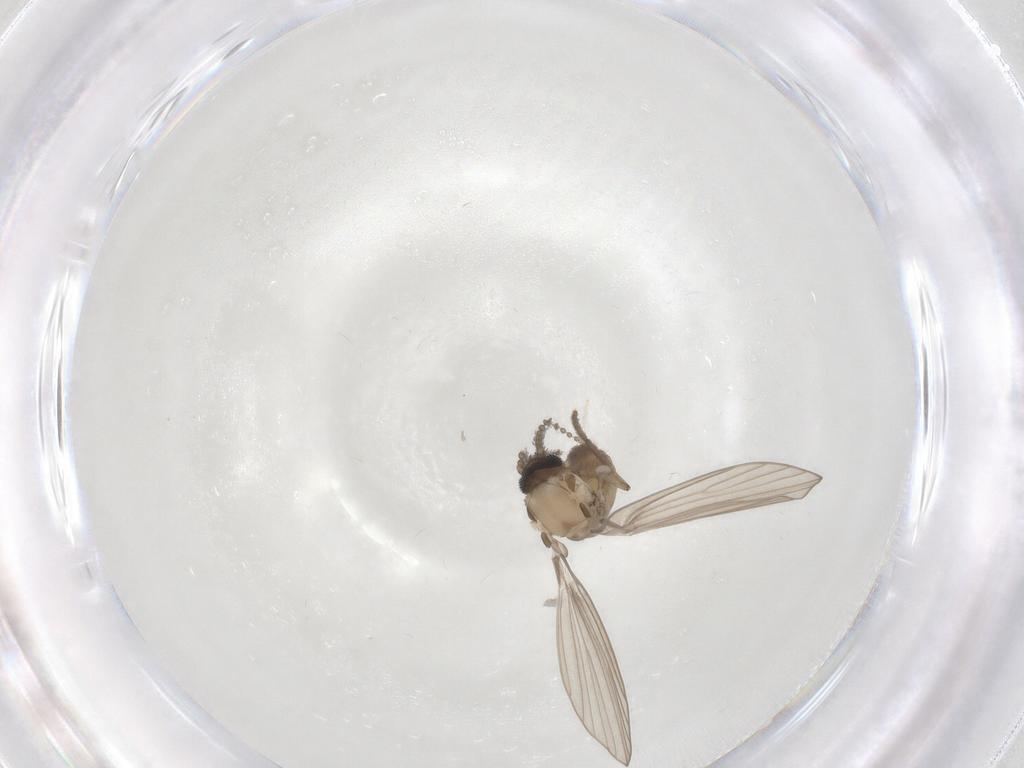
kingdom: Animalia
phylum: Arthropoda
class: Insecta
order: Diptera
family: Psychodidae
